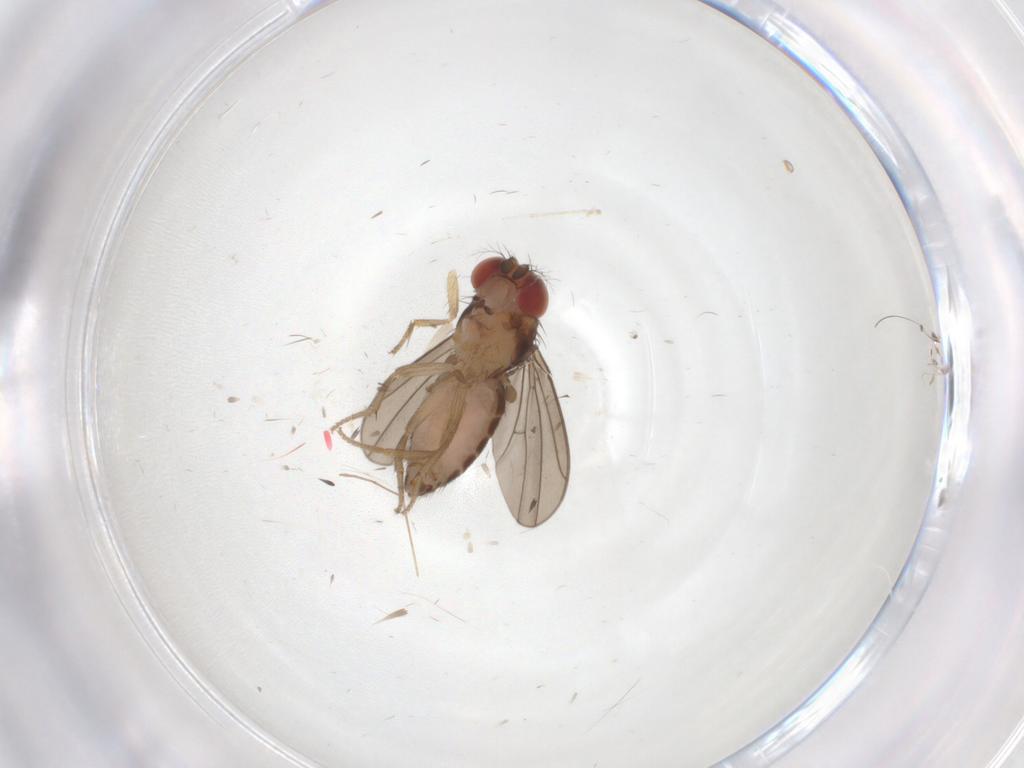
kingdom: Animalia
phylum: Arthropoda
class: Insecta
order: Diptera
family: Drosophilidae
